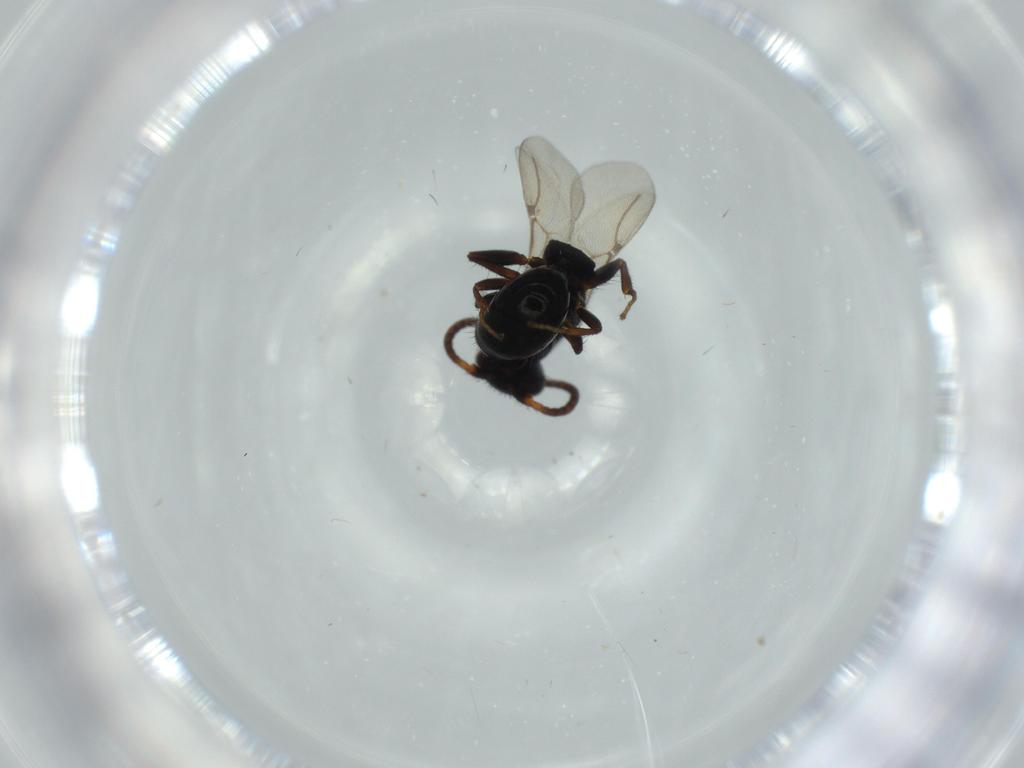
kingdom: Animalia
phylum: Arthropoda
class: Insecta
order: Hymenoptera
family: Bethylidae
